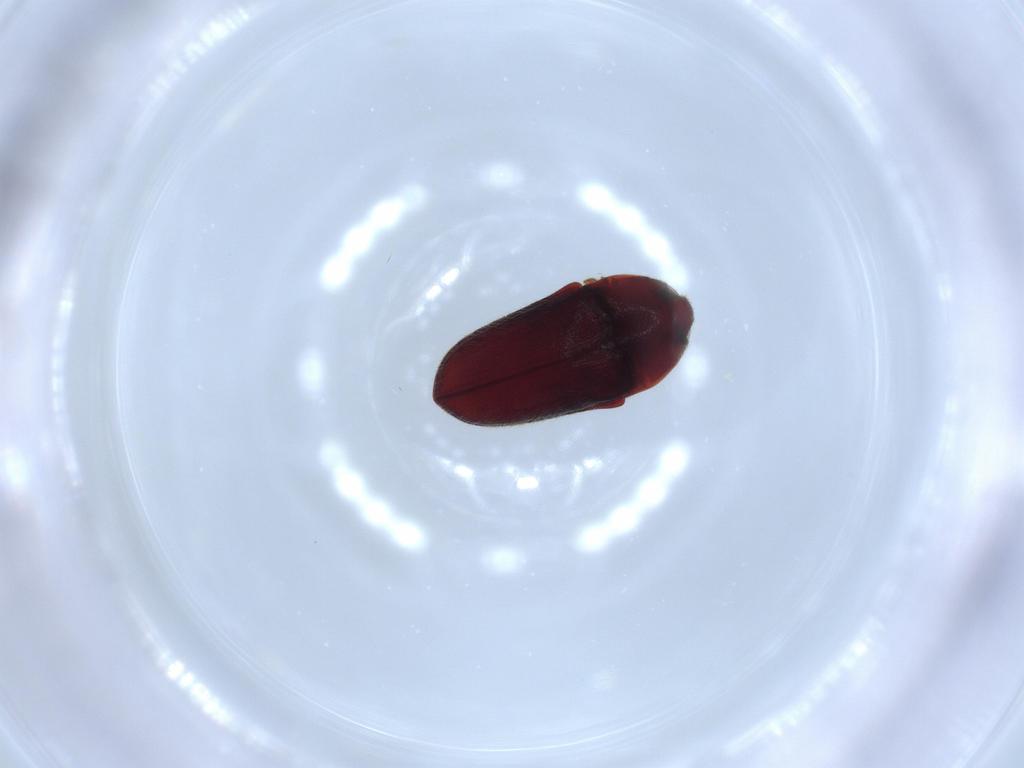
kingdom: Animalia
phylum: Arthropoda
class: Insecta
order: Coleoptera
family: Throscidae
